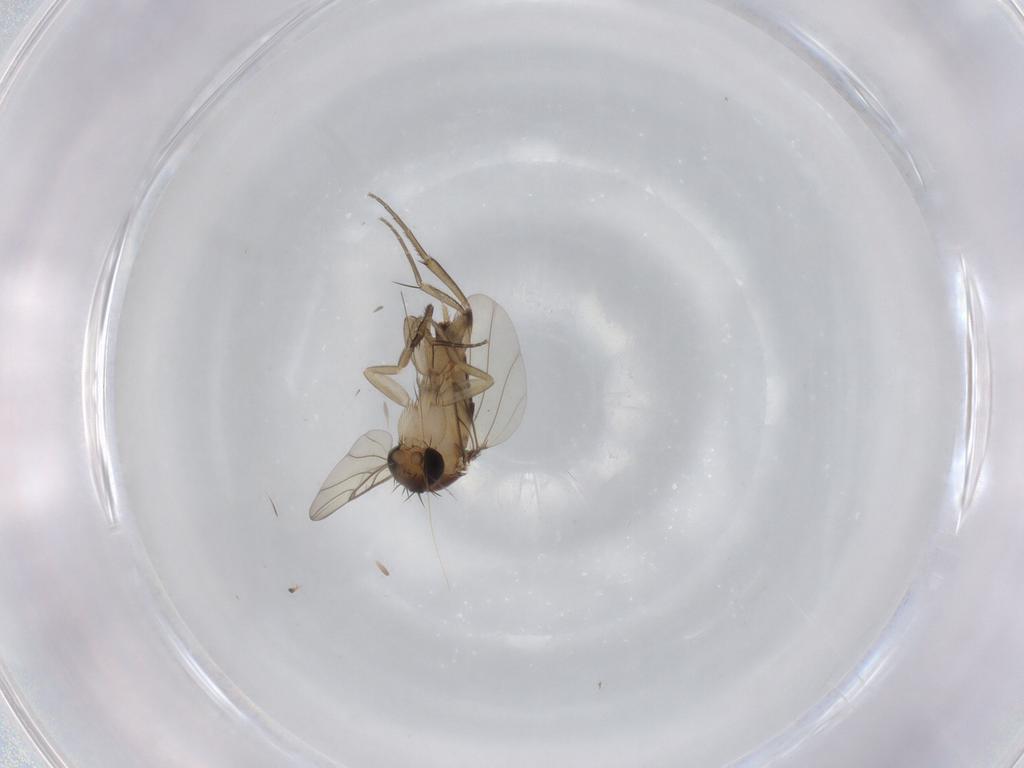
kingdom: Animalia
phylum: Arthropoda
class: Insecta
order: Diptera
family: Phoridae
